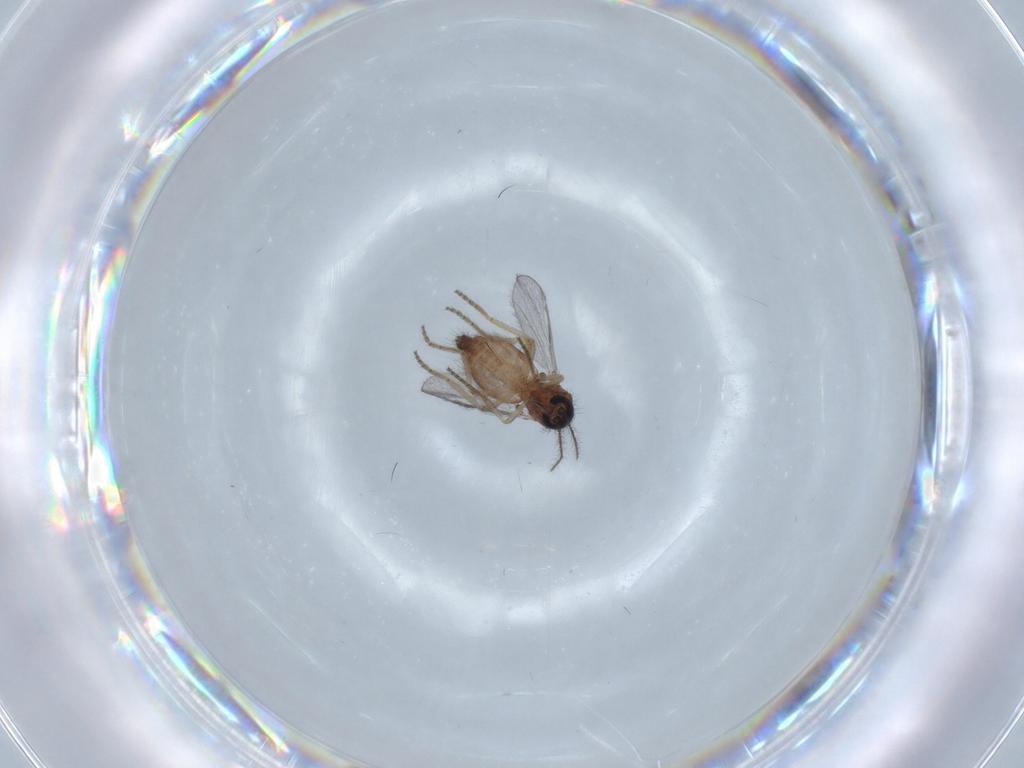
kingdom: Animalia
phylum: Arthropoda
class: Insecta
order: Diptera
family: Ceratopogonidae
